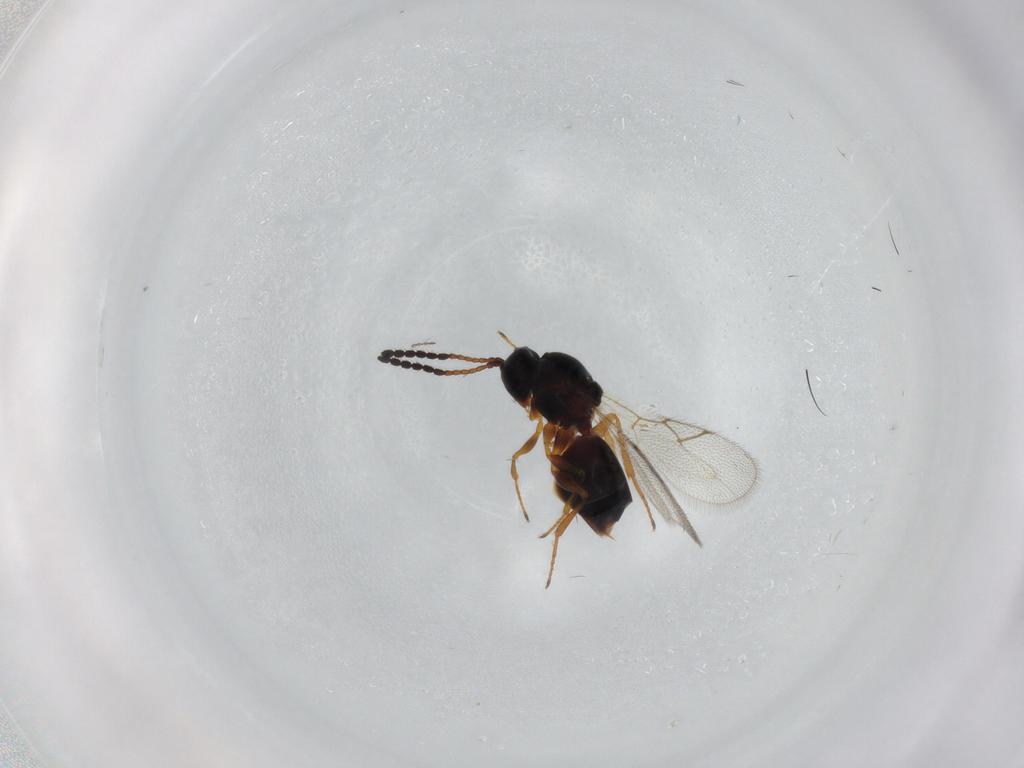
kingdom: Animalia
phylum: Arthropoda
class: Insecta
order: Hymenoptera
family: Figitidae
